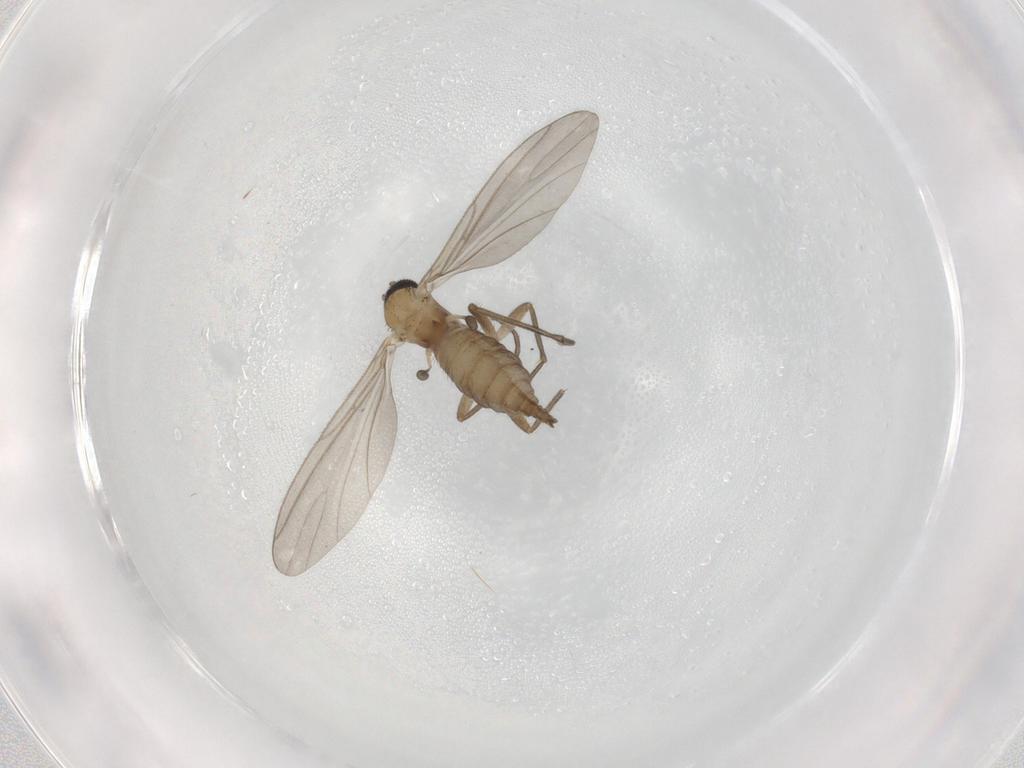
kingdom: Animalia
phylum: Arthropoda
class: Insecta
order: Diptera
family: Sciaridae
